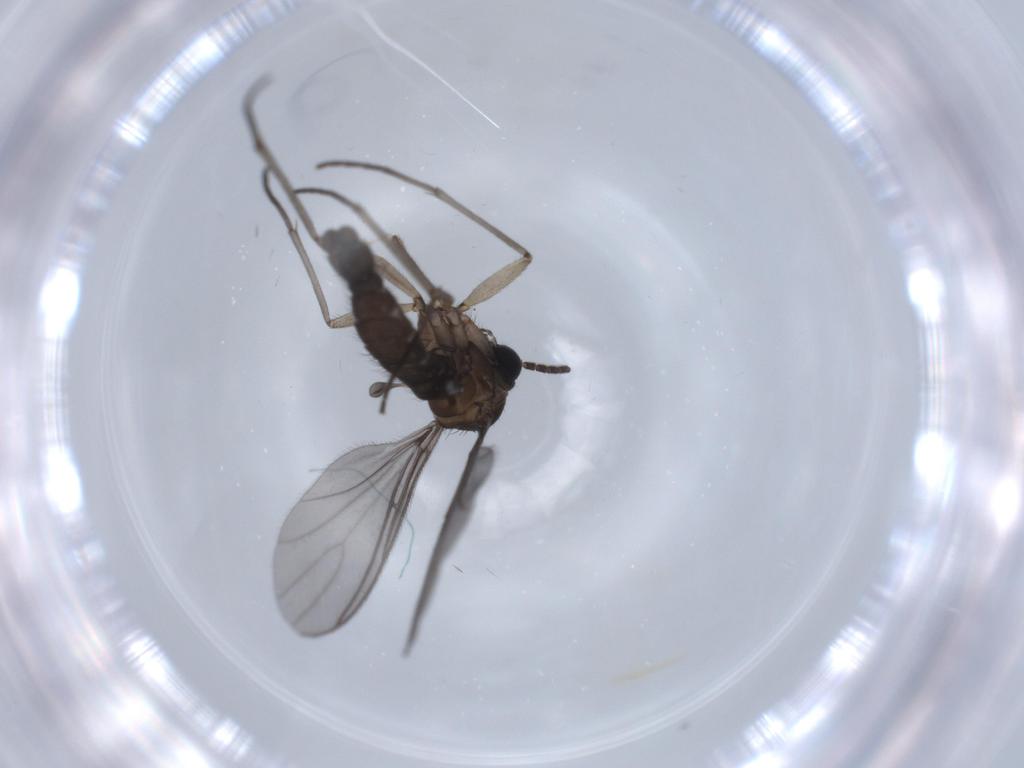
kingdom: Animalia
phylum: Arthropoda
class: Insecta
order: Diptera
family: Sciaridae
